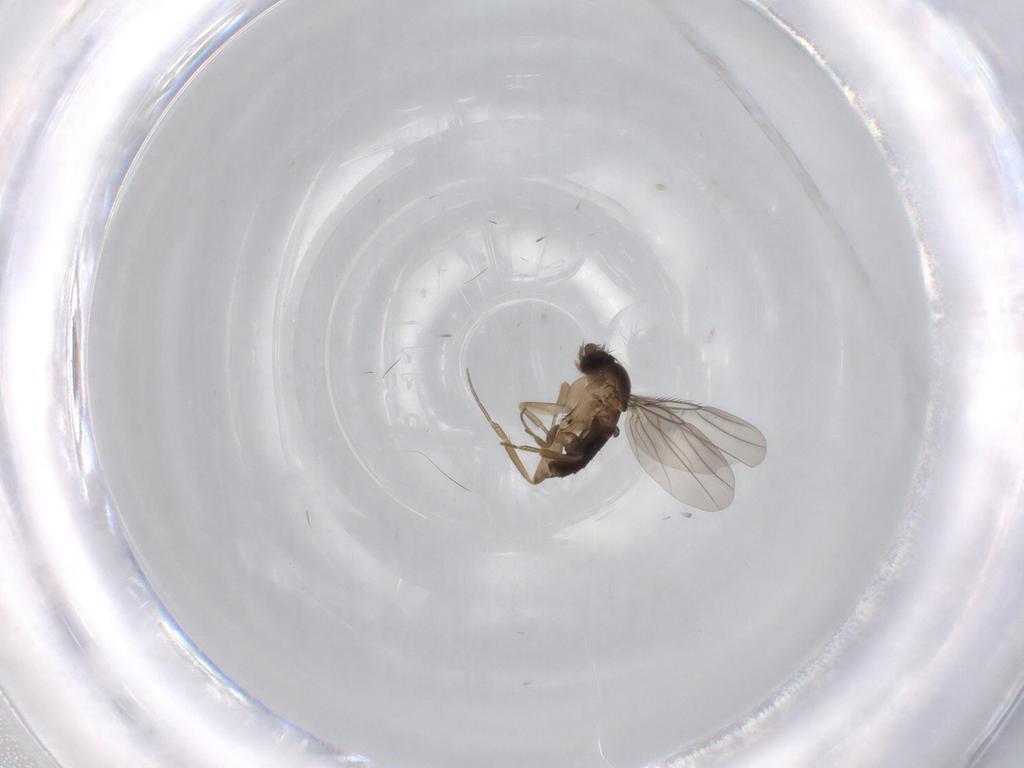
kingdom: Animalia
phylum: Arthropoda
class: Insecta
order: Diptera
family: Phoridae
